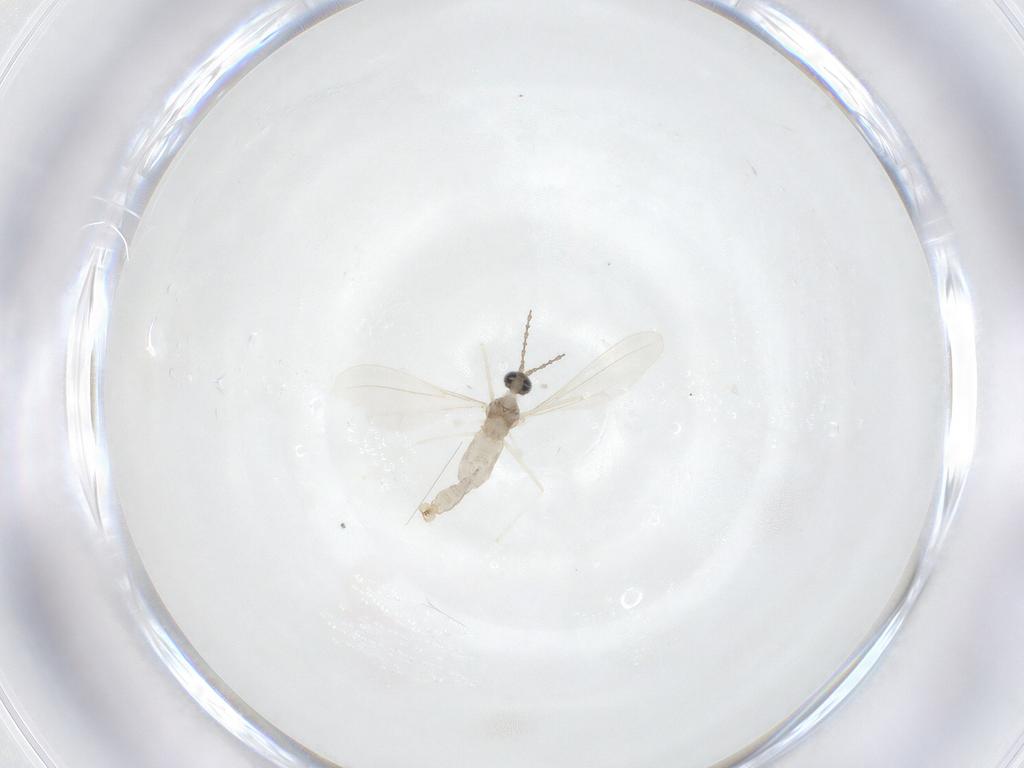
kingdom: Animalia
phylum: Arthropoda
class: Insecta
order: Diptera
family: Cecidomyiidae
